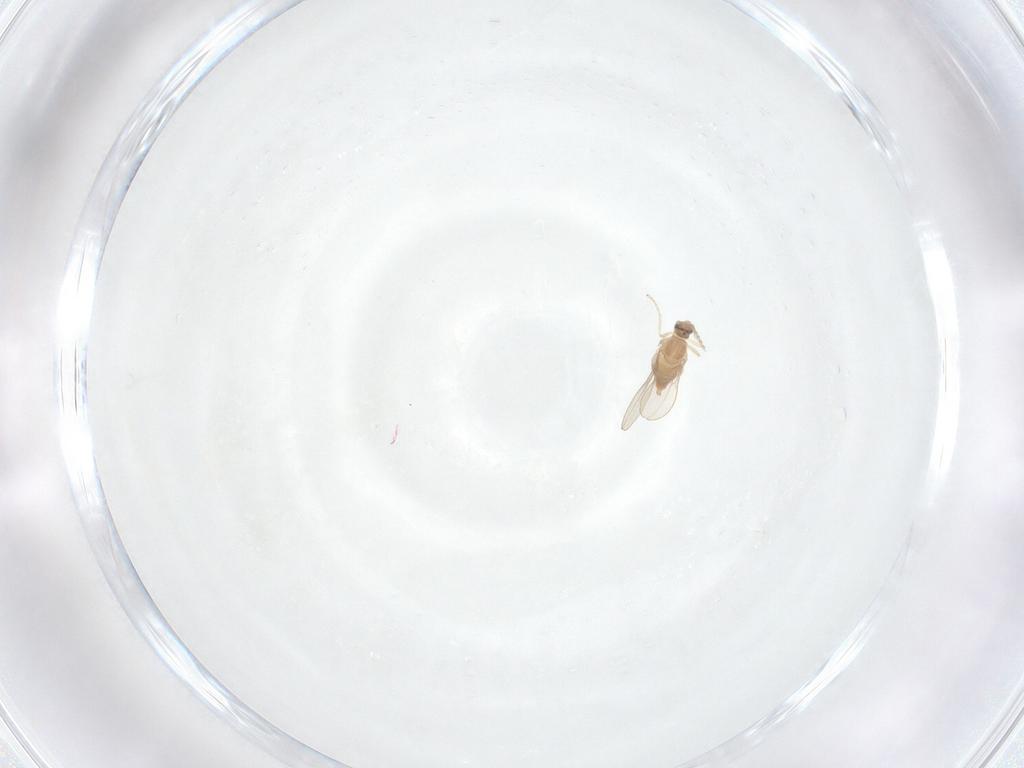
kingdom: Animalia
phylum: Arthropoda
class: Insecta
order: Diptera
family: Cecidomyiidae
